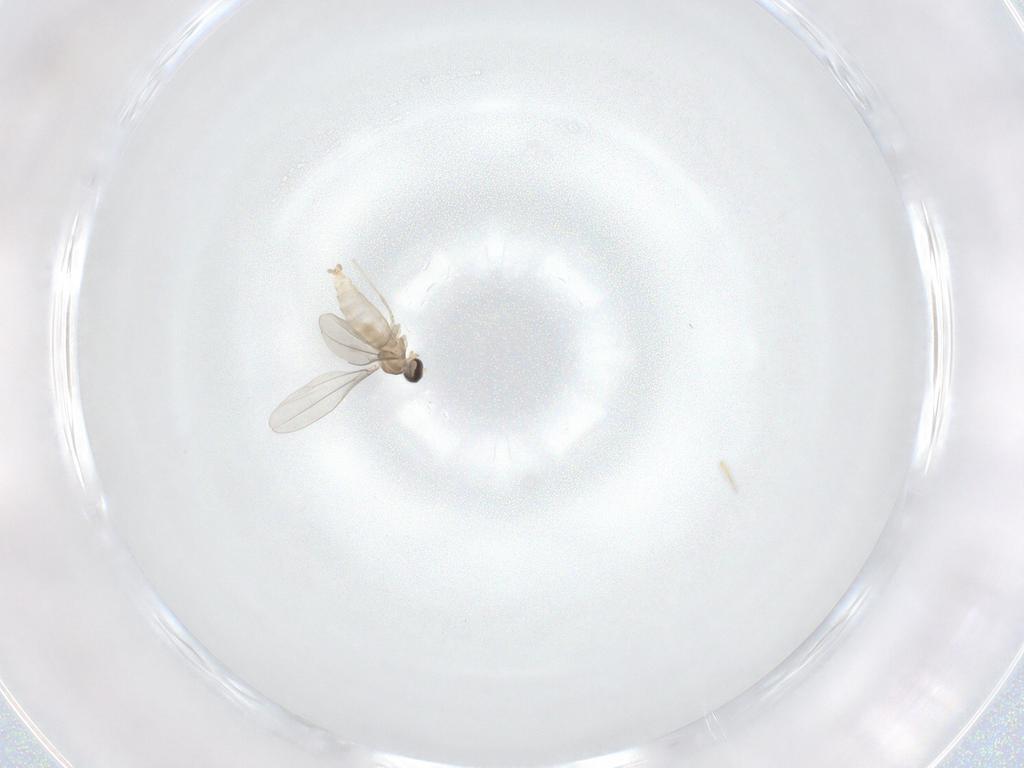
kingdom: Animalia
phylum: Arthropoda
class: Insecta
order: Diptera
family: Cecidomyiidae
